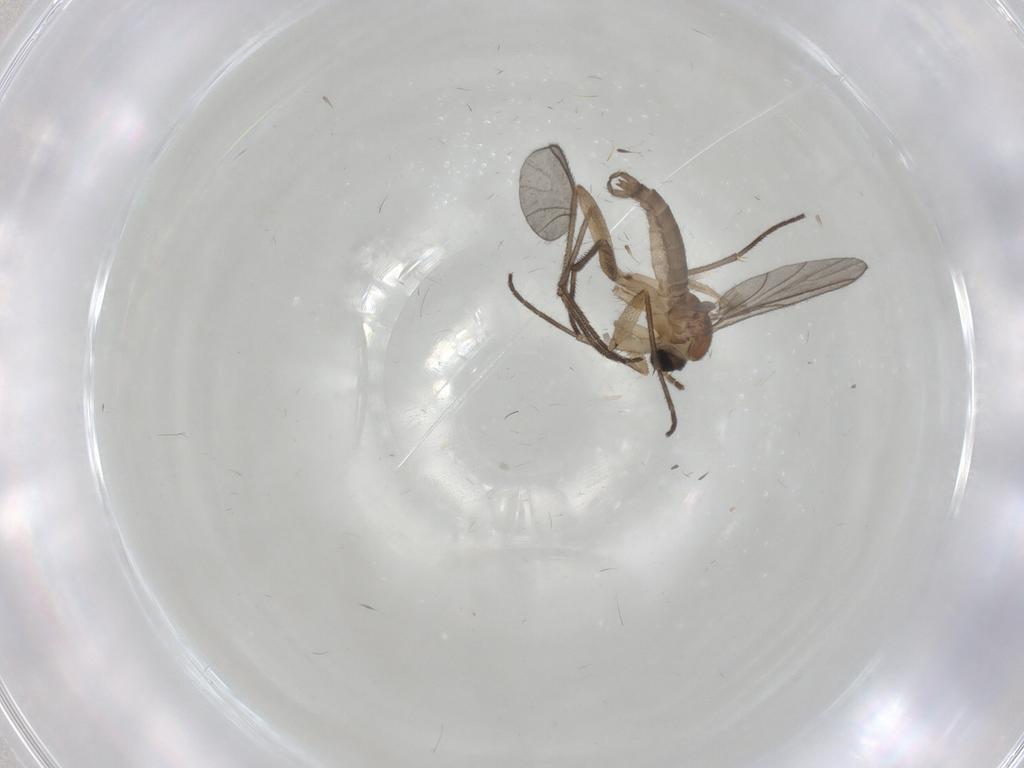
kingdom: Animalia
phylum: Arthropoda
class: Insecta
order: Diptera
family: Sciaridae
